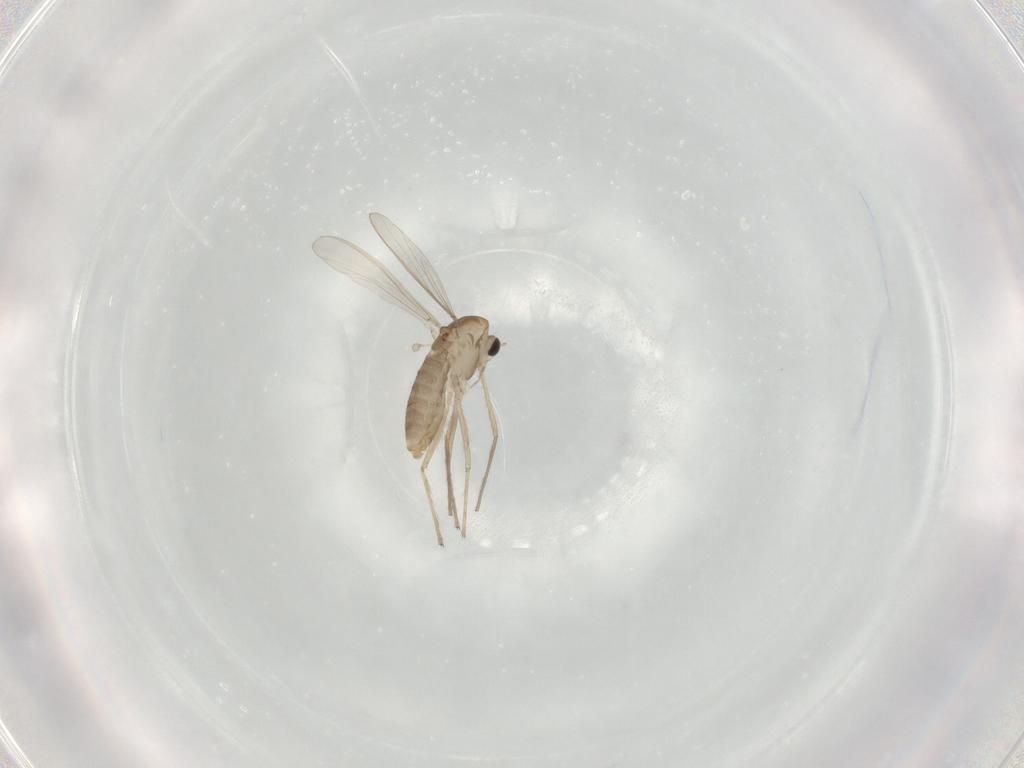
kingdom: Animalia
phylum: Arthropoda
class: Insecta
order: Diptera
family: Chironomidae
